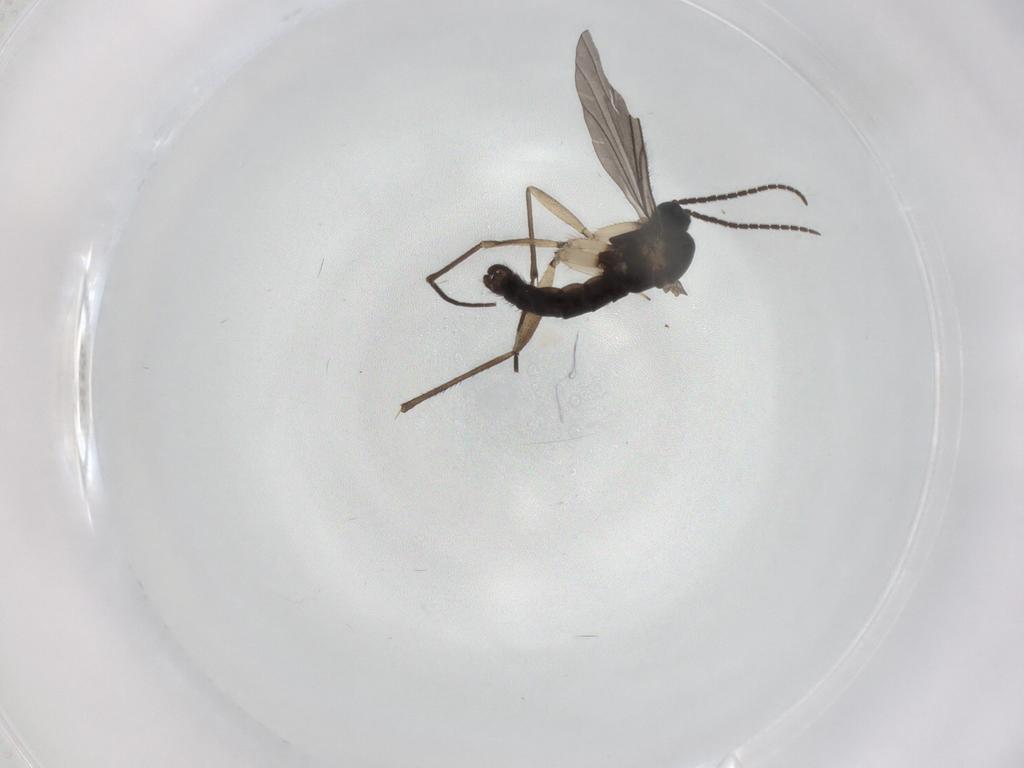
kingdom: Animalia
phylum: Arthropoda
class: Insecta
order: Diptera
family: Sciaridae
